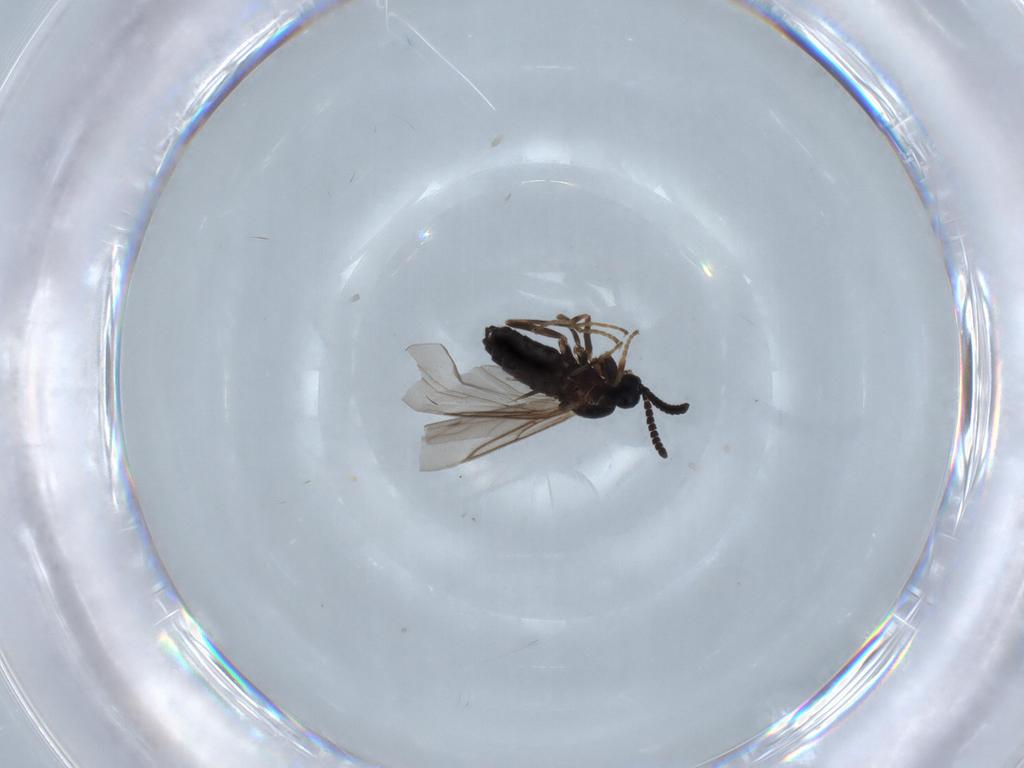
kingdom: Animalia
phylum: Arthropoda
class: Insecta
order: Diptera
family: Scatopsidae
